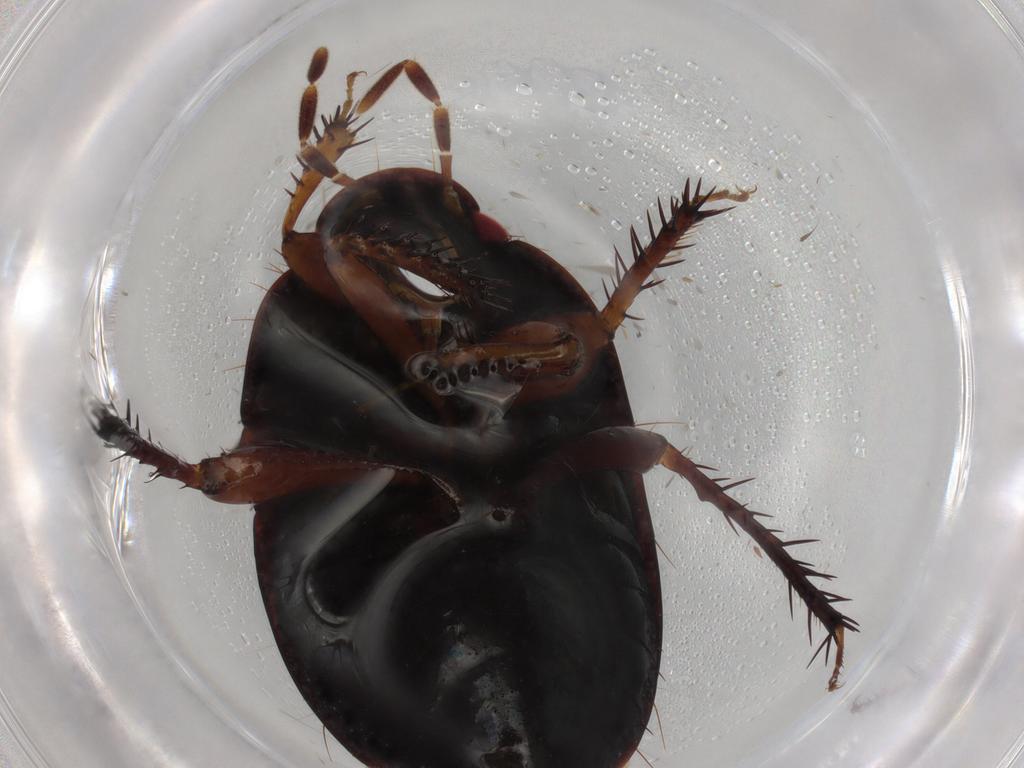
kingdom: Animalia
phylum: Arthropoda
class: Insecta
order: Hemiptera
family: Cydnidae
